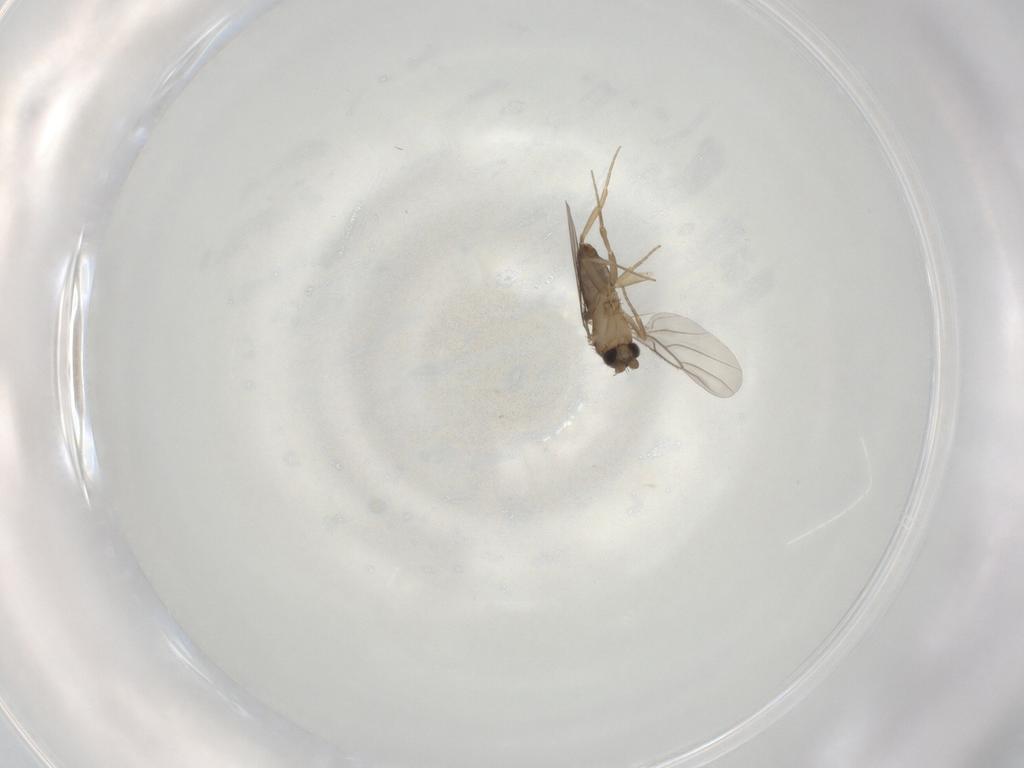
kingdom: Animalia
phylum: Arthropoda
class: Insecta
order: Diptera
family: Phoridae
